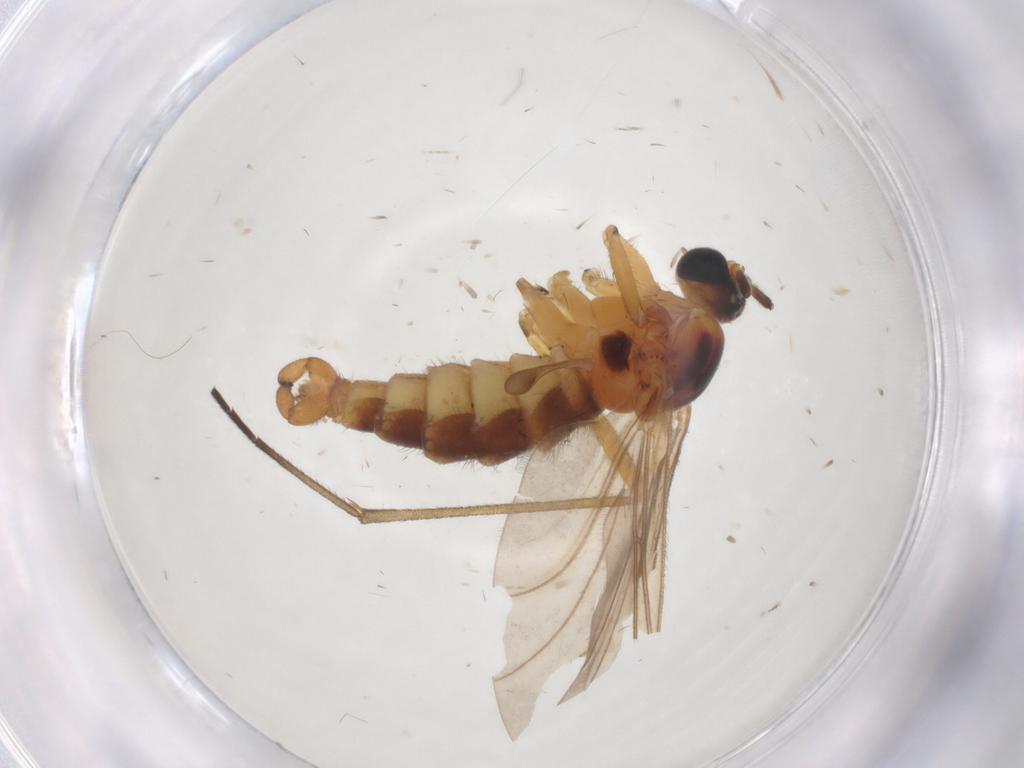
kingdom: Animalia
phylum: Arthropoda
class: Insecta
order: Diptera
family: Sciaridae
